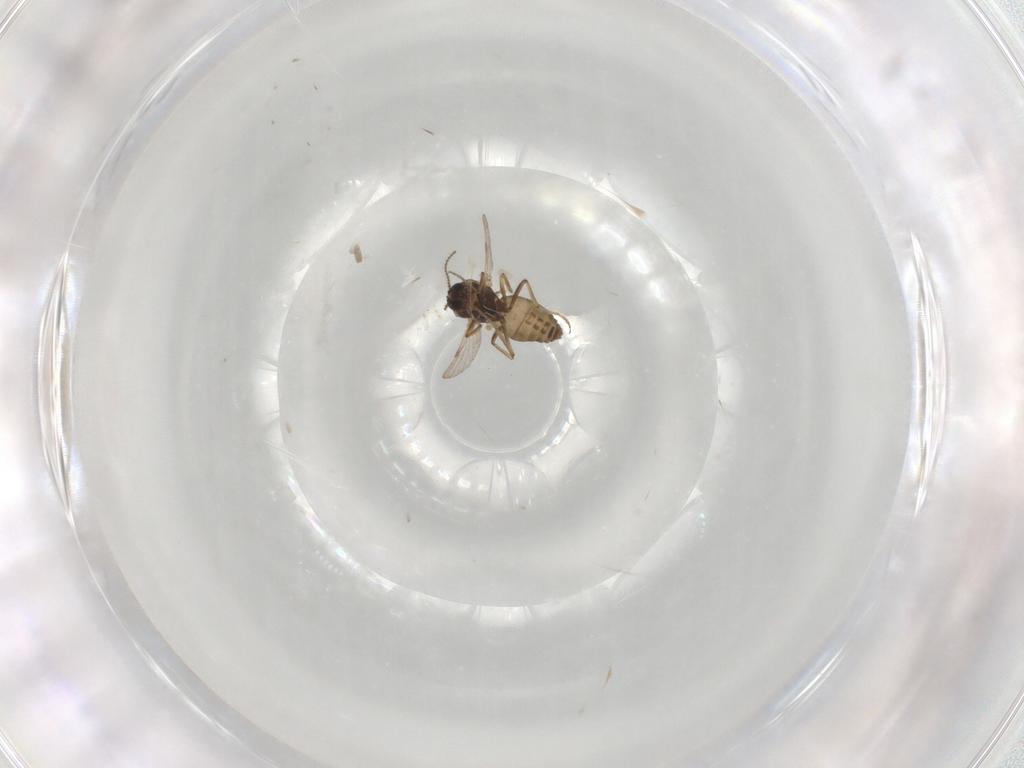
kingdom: Animalia
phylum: Arthropoda
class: Insecta
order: Diptera
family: Ceratopogonidae
